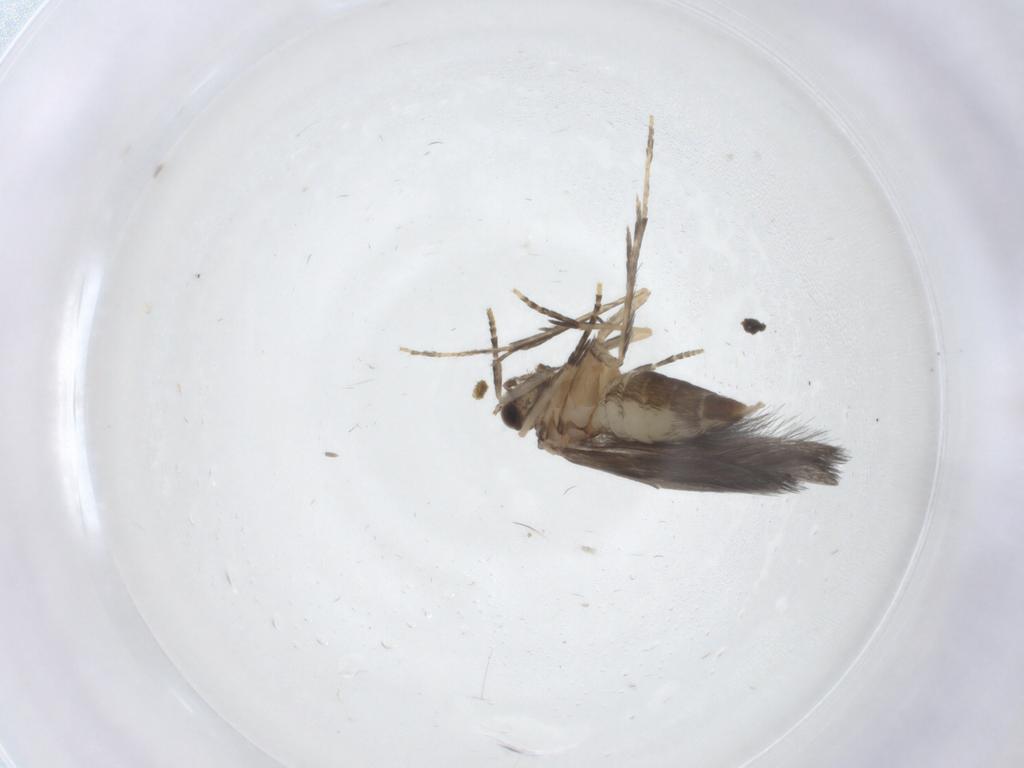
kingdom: Animalia
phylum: Arthropoda
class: Insecta
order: Trichoptera
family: Hydroptilidae
